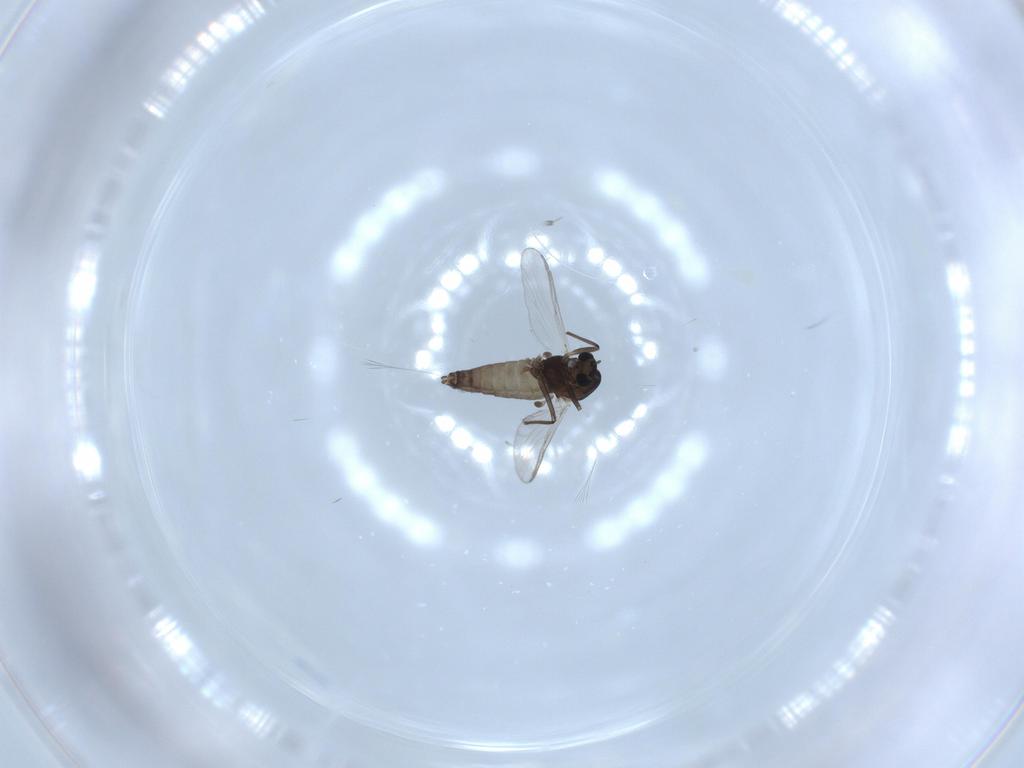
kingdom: Animalia
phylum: Arthropoda
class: Insecta
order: Diptera
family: Chironomidae
